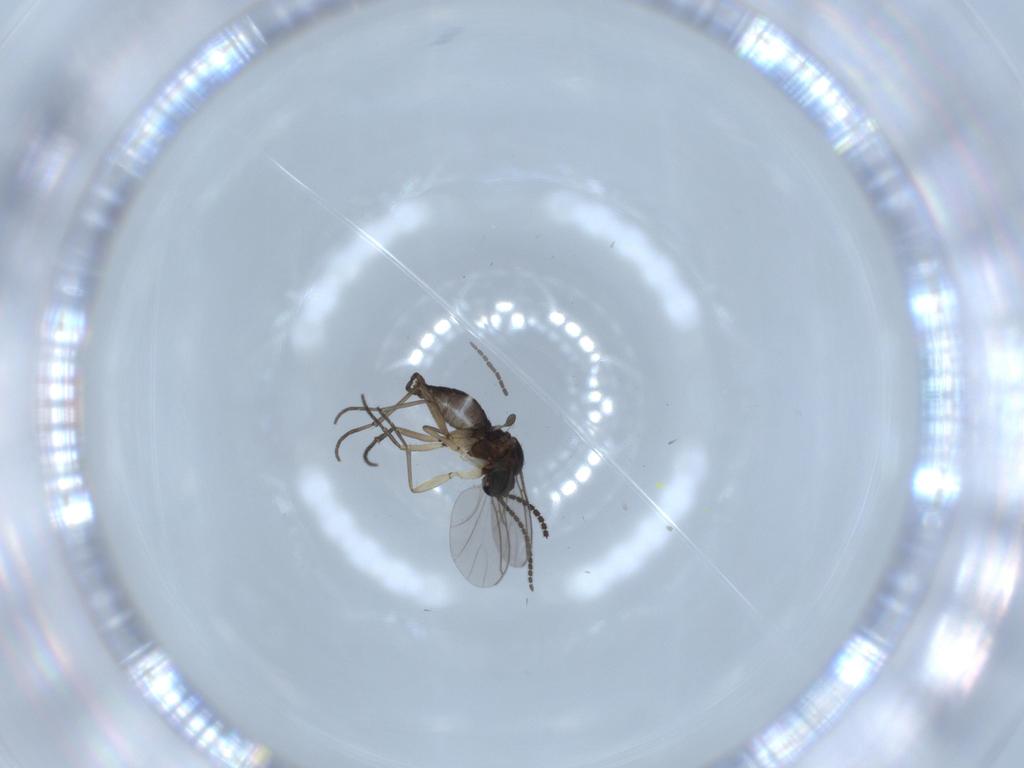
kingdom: Animalia
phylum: Arthropoda
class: Insecta
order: Diptera
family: Sciaridae
